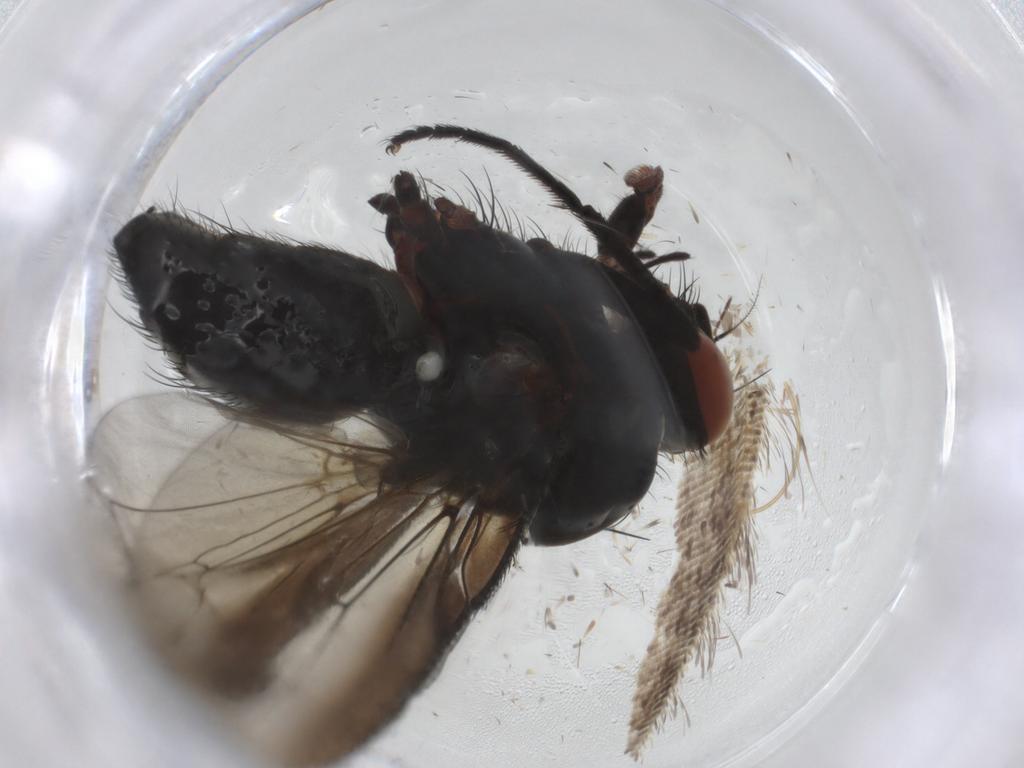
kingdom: Animalia
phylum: Arthropoda
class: Insecta
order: Diptera
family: Anthomyiidae
